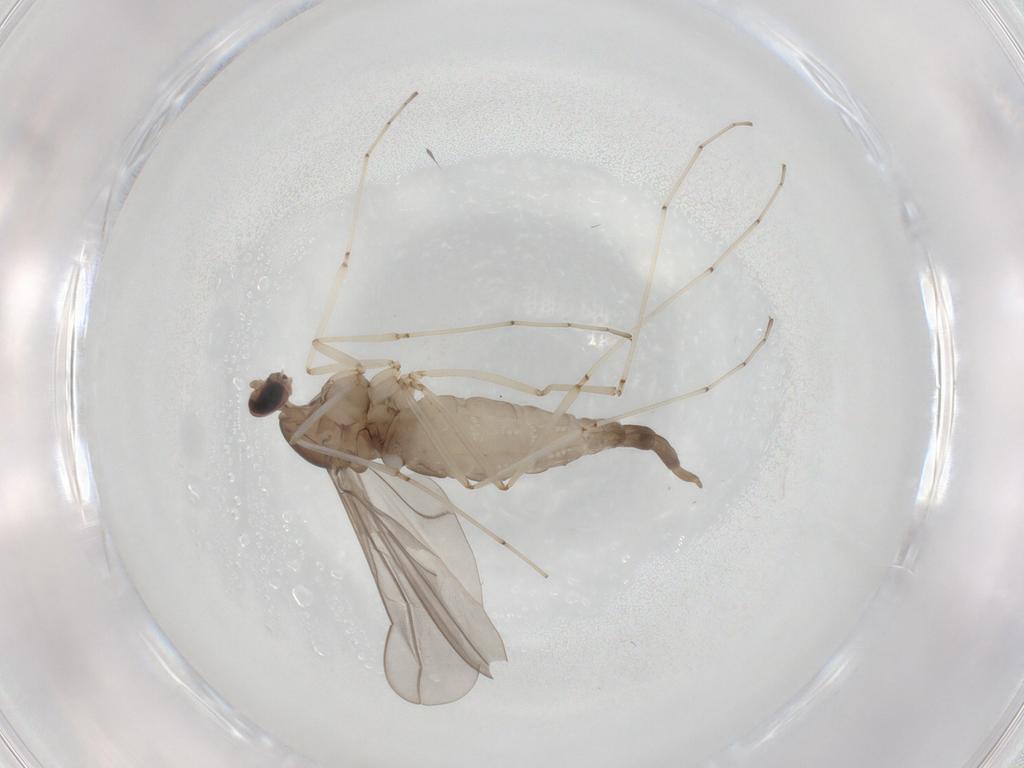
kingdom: Animalia
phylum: Arthropoda
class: Insecta
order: Diptera
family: Cecidomyiidae
